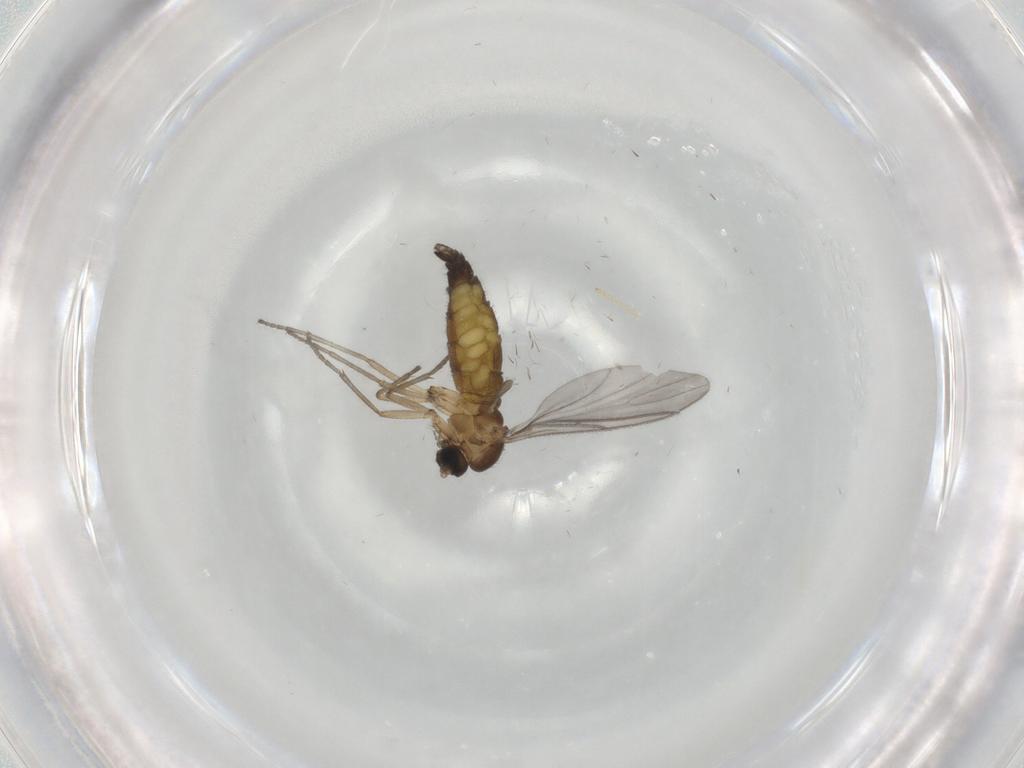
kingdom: Animalia
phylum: Arthropoda
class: Insecta
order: Diptera
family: Sciaridae
